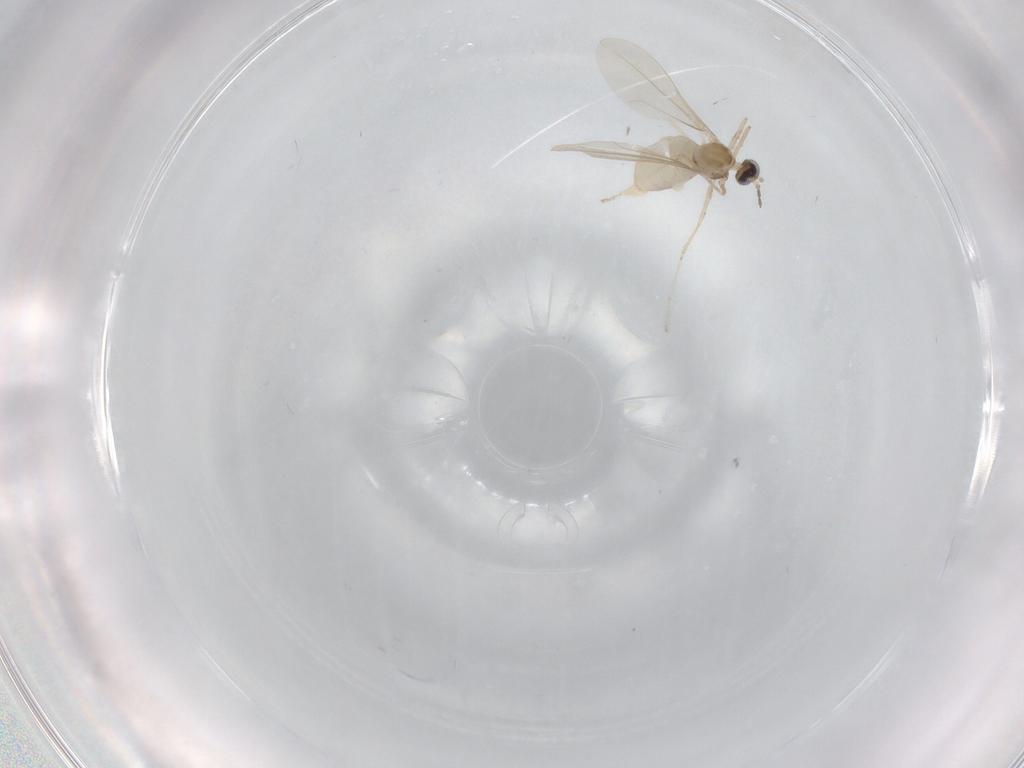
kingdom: Animalia
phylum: Arthropoda
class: Insecta
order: Diptera
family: Cecidomyiidae
